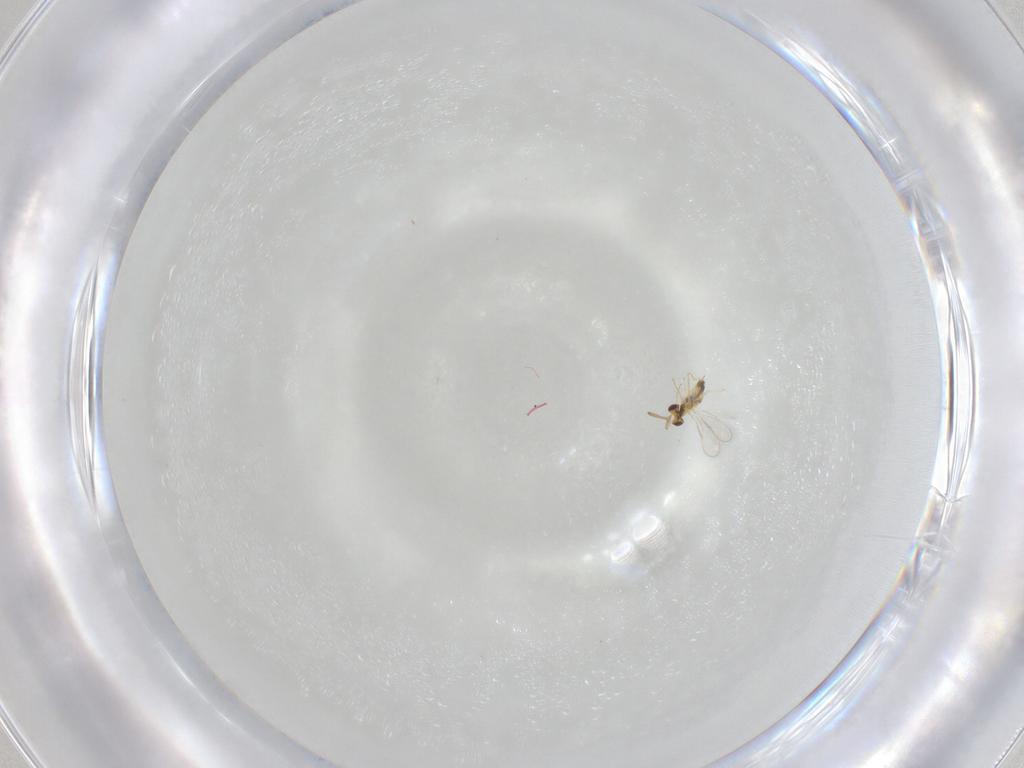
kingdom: Animalia
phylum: Arthropoda
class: Insecta
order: Hymenoptera
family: Aphelinidae
